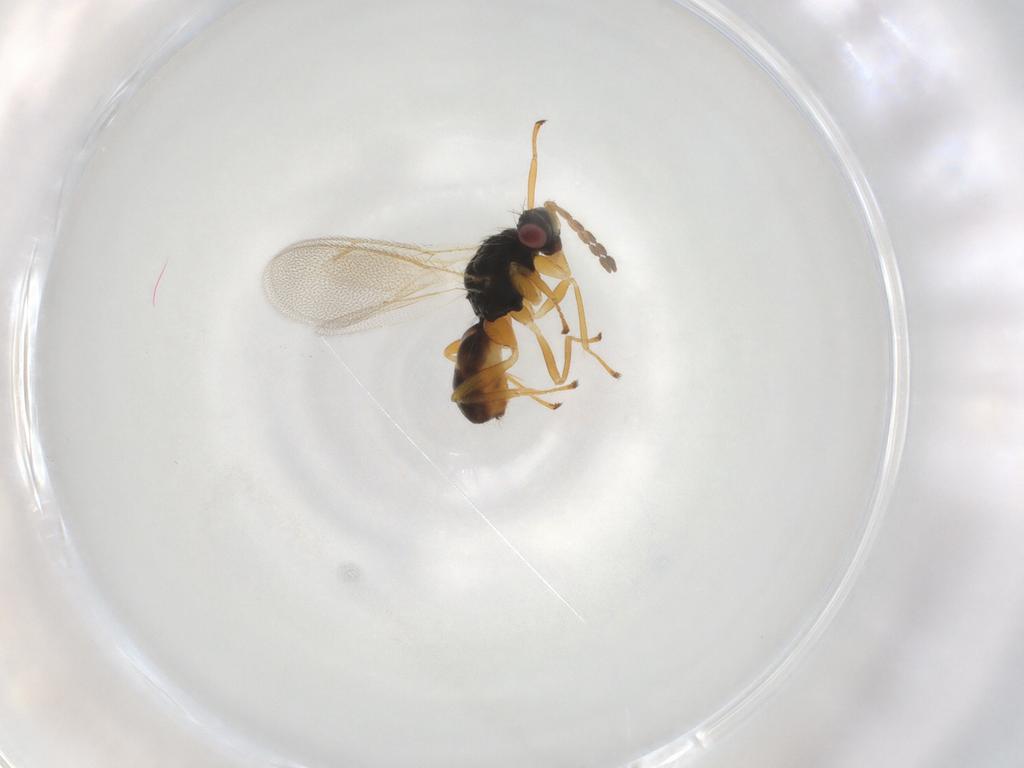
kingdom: Animalia
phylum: Arthropoda
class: Insecta
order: Hymenoptera
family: Eulophidae
